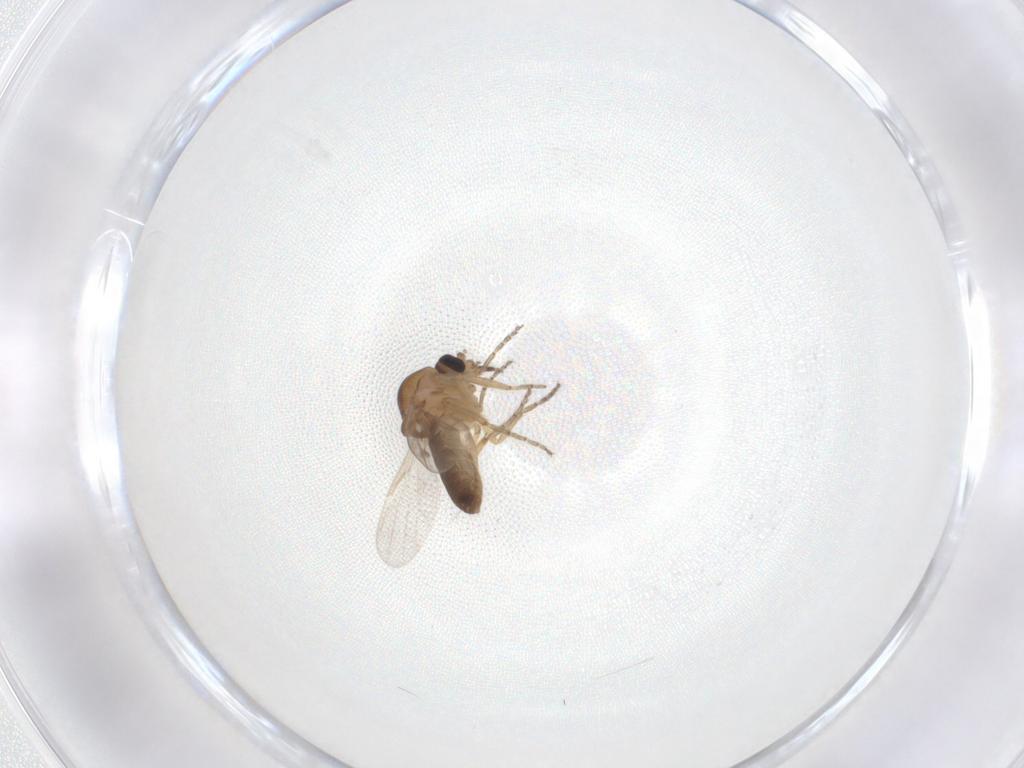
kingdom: Animalia
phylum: Arthropoda
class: Insecta
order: Diptera
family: Ceratopogonidae
